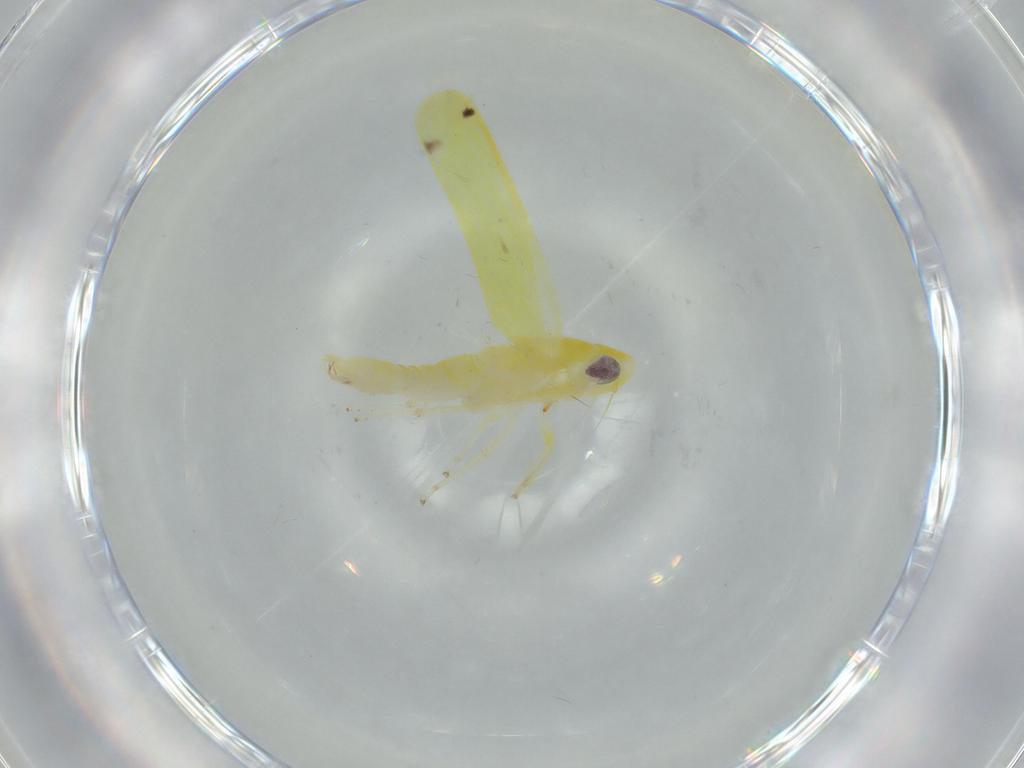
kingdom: Animalia
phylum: Arthropoda
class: Insecta
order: Hemiptera
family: Cicadellidae
